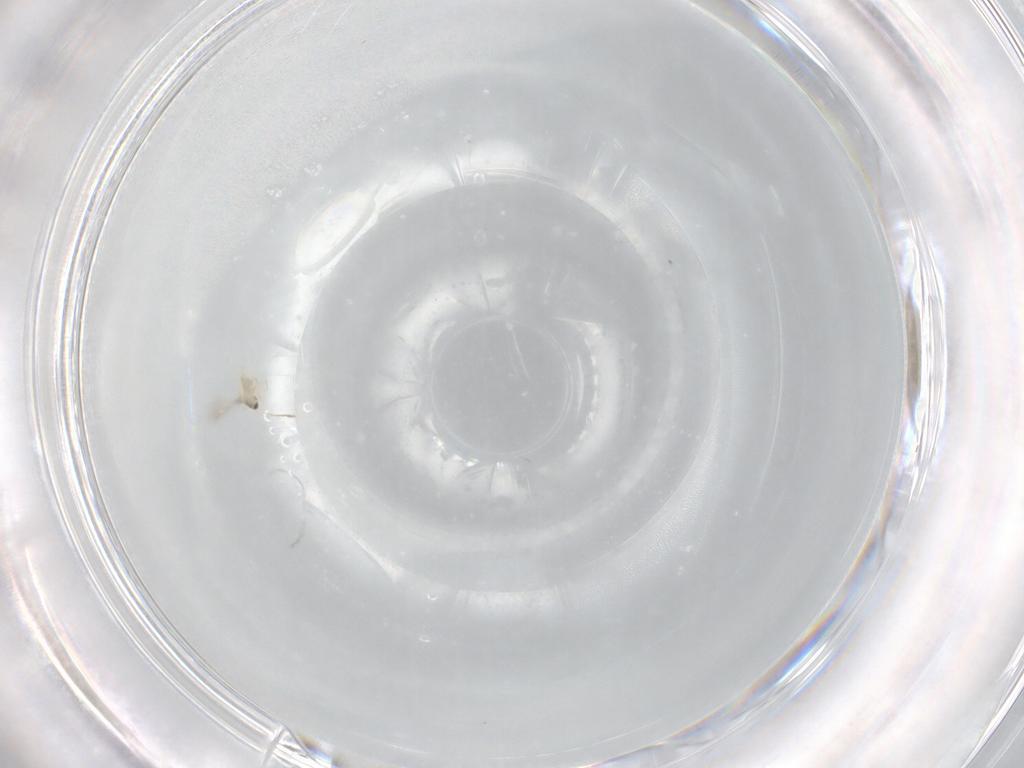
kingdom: Animalia
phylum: Arthropoda
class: Insecta
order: Hymenoptera
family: Mymaridae
